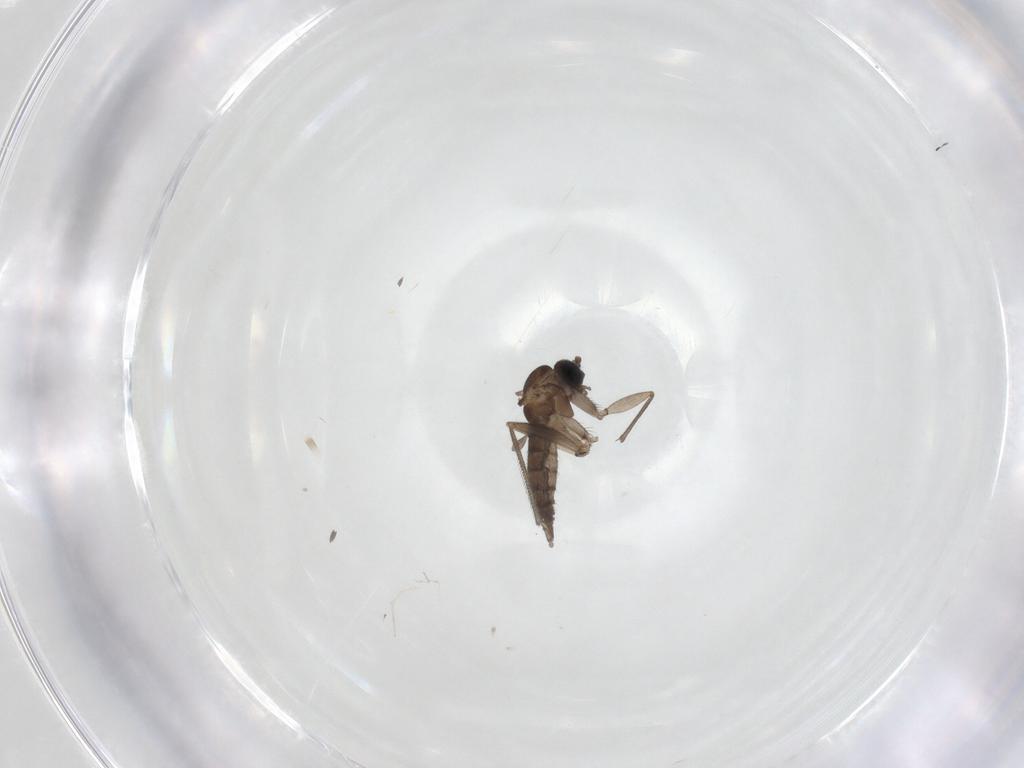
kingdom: Animalia
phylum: Arthropoda
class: Insecta
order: Diptera
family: Sciaridae
